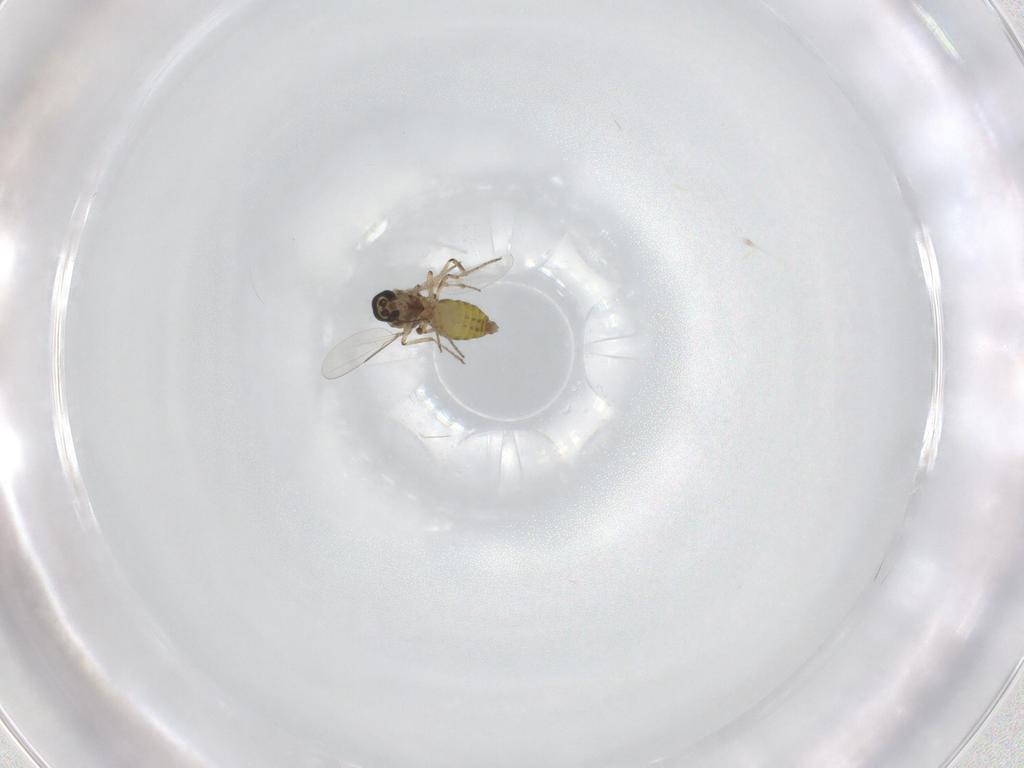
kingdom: Animalia
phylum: Arthropoda
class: Insecta
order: Diptera
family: Ceratopogonidae
